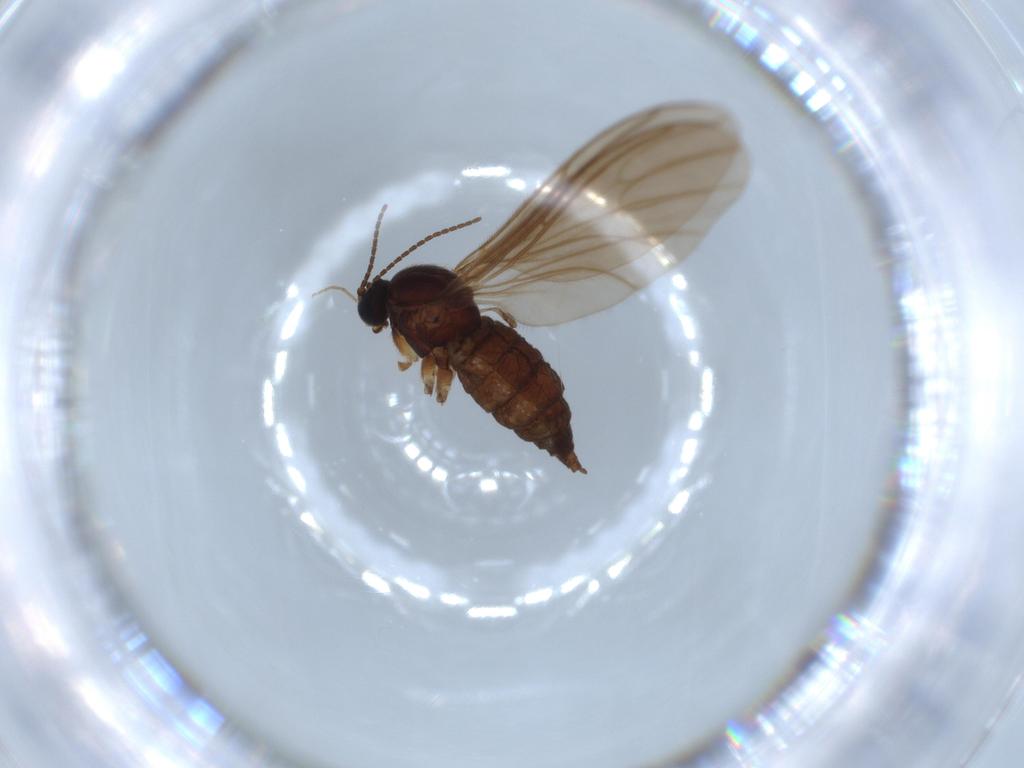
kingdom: Animalia
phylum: Arthropoda
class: Insecta
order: Diptera
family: Sciaridae
